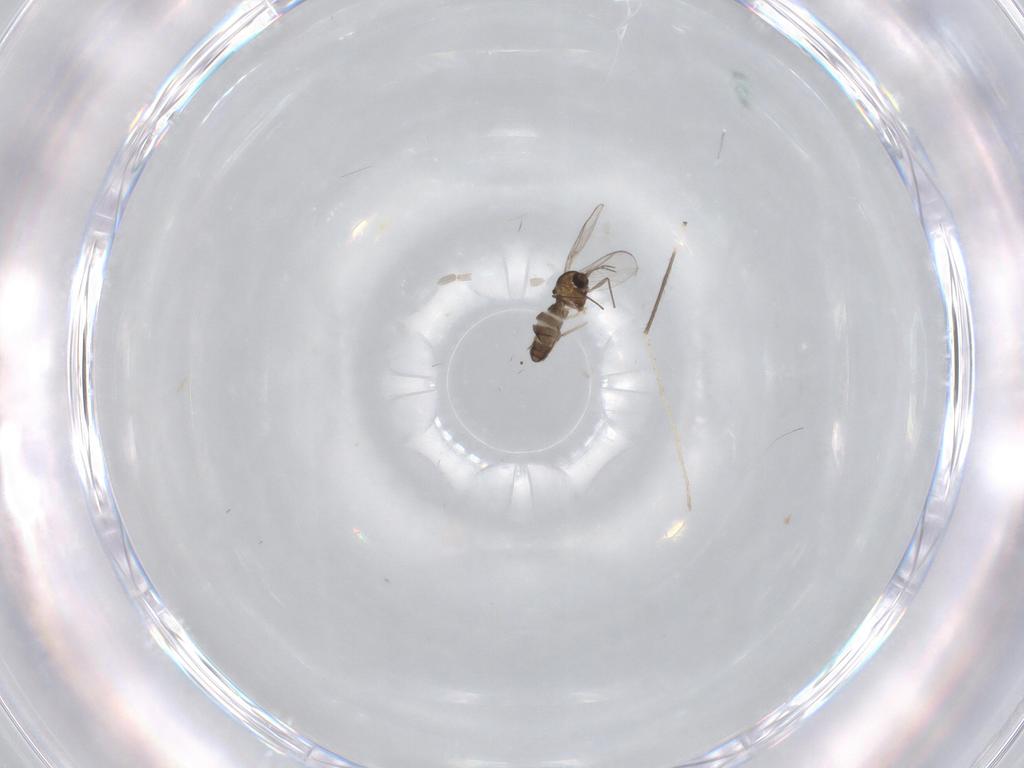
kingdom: Animalia
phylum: Arthropoda
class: Insecta
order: Diptera
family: Chironomidae
